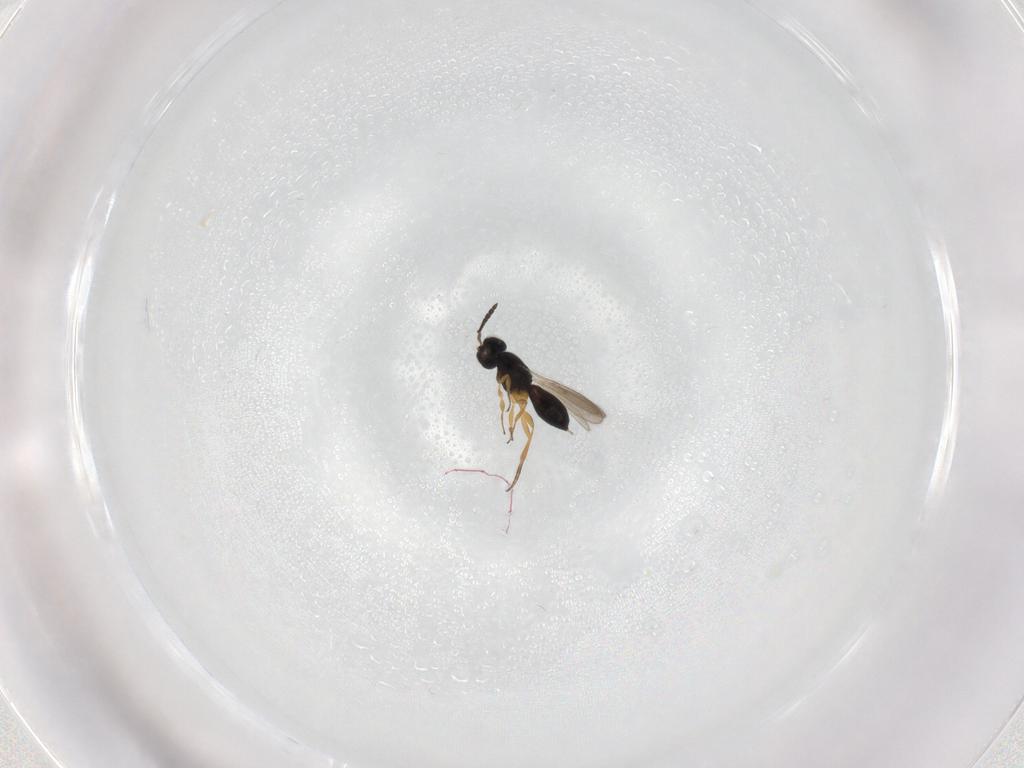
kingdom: Animalia
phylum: Arthropoda
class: Insecta
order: Hymenoptera
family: Scelionidae
